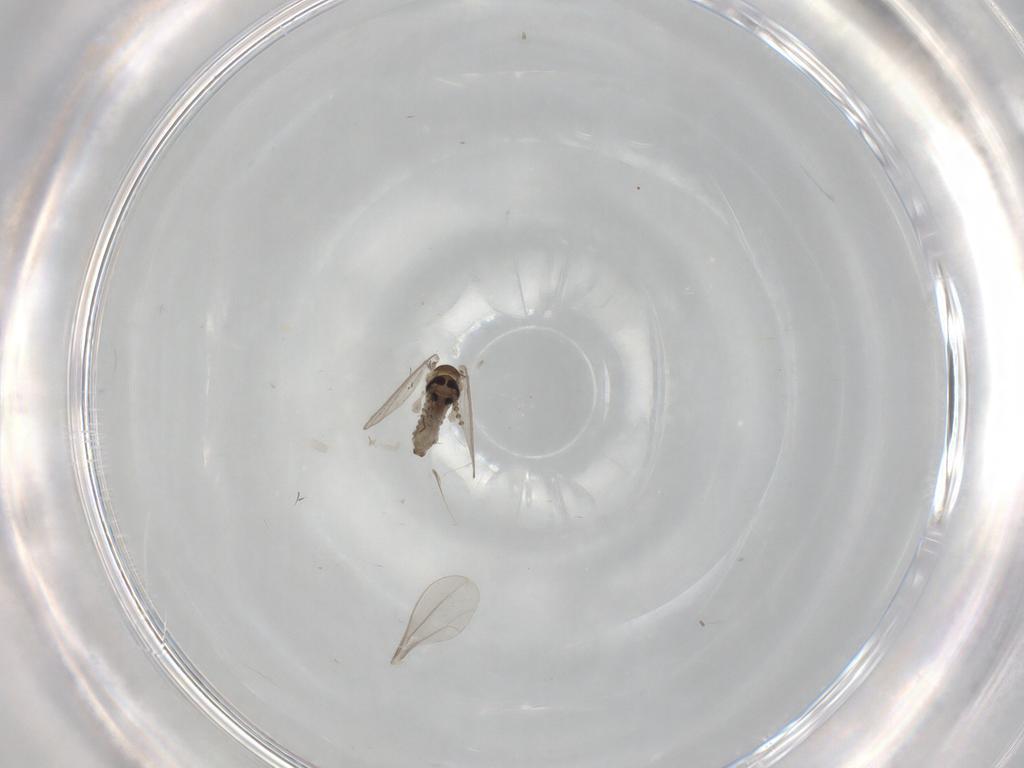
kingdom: Animalia
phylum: Arthropoda
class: Insecta
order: Diptera
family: Cecidomyiidae
